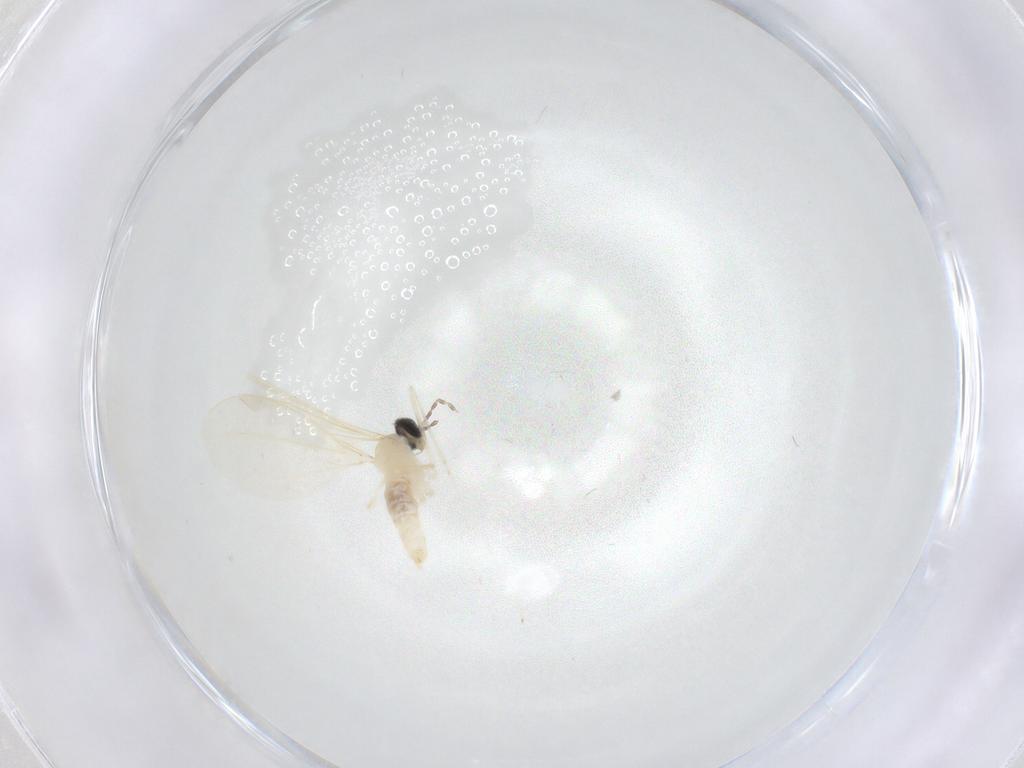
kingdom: Animalia
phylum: Arthropoda
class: Insecta
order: Diptera
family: Cecidomyiidae
